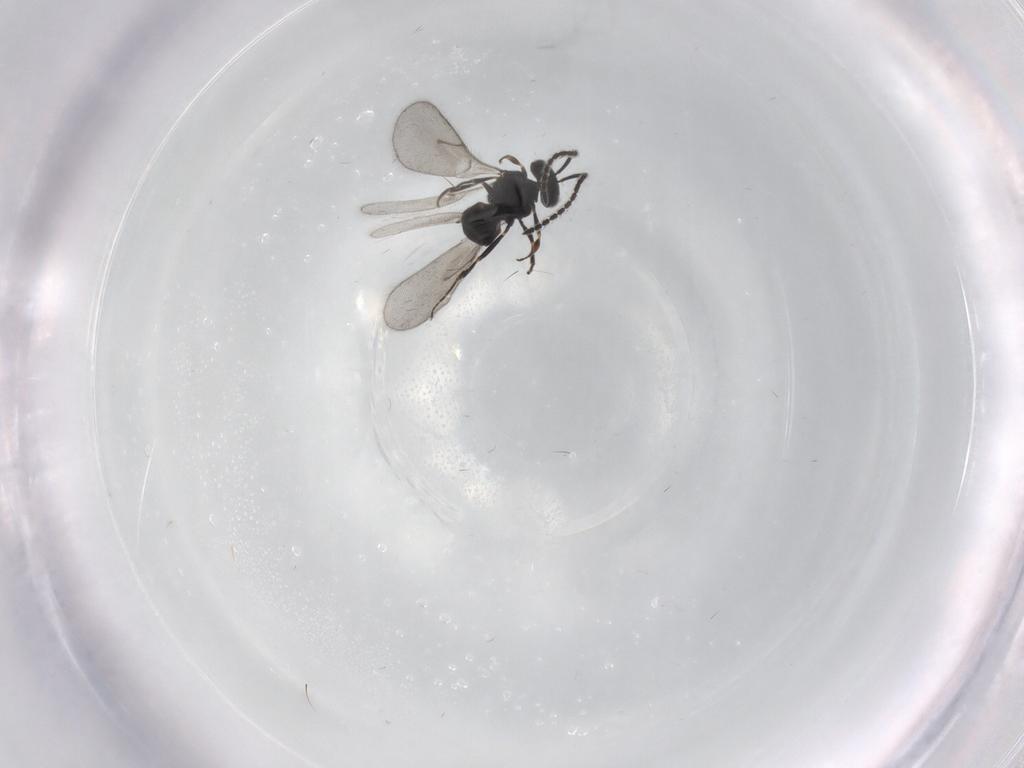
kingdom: Animalia
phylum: Arthropoda
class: Insecta
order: Hymenoptera
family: Scelionidae
